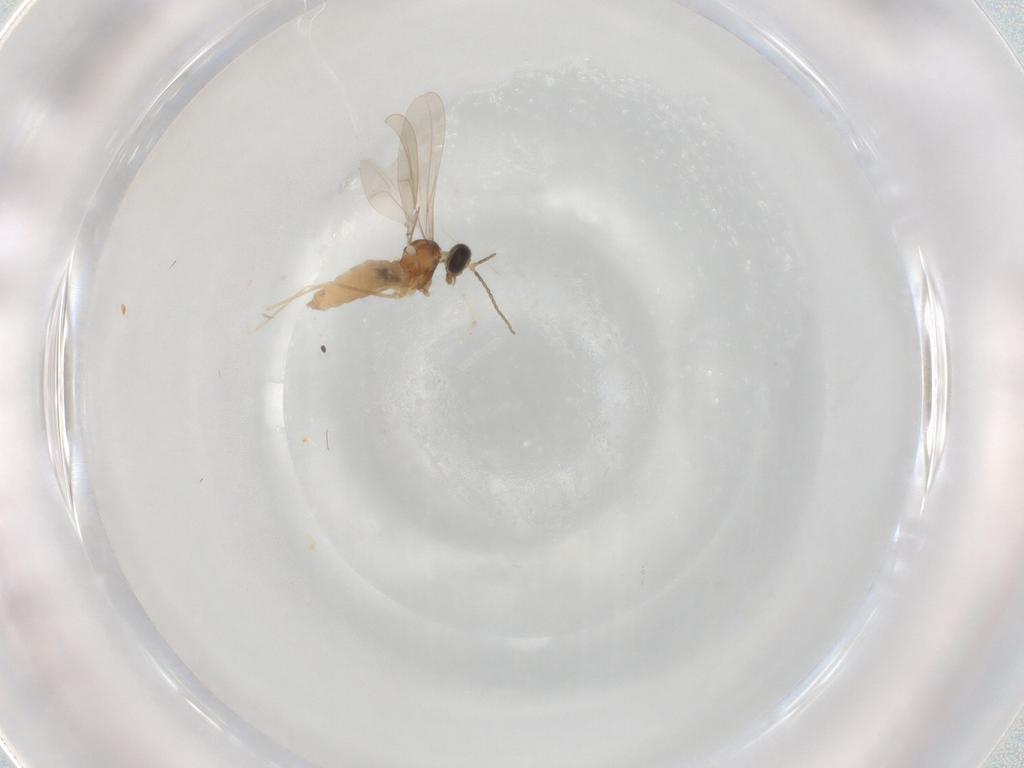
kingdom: Animalia
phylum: Arthropoda
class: Insecta
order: Diptera
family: Cecidomyiidae
